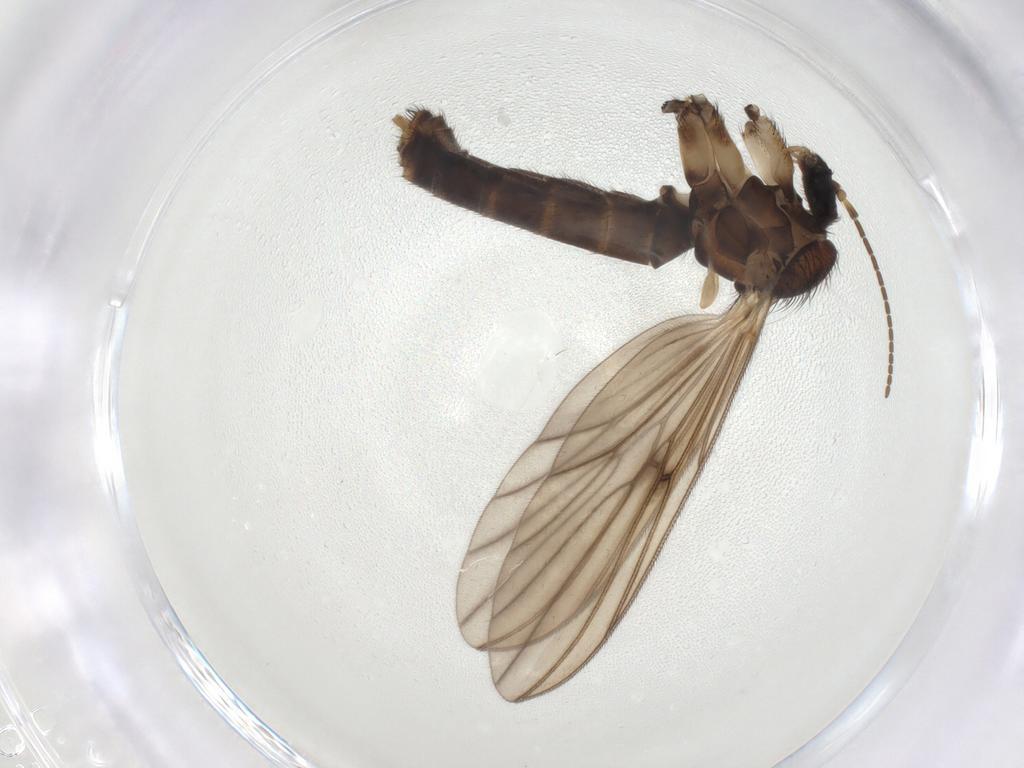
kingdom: Animalia
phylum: Arthropoda
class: Insecta
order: Diptera
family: Mycetophilidae
